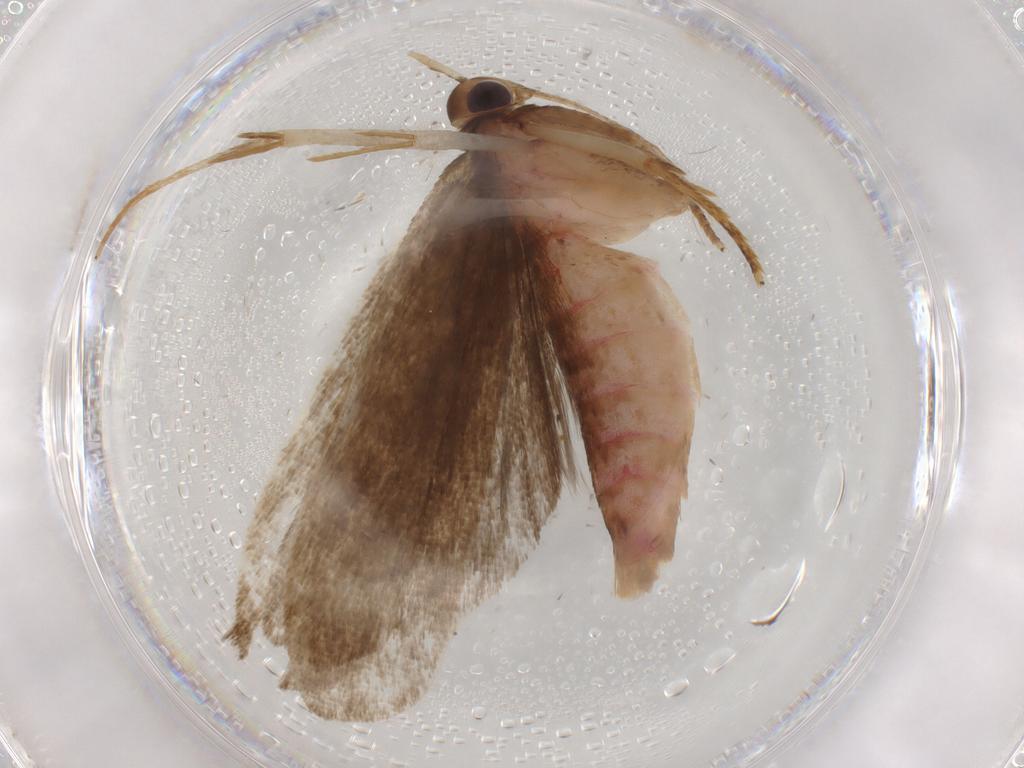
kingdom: Animalia
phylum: Arthropoda
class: Insecta
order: Lepidoptera
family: Autostichidae
